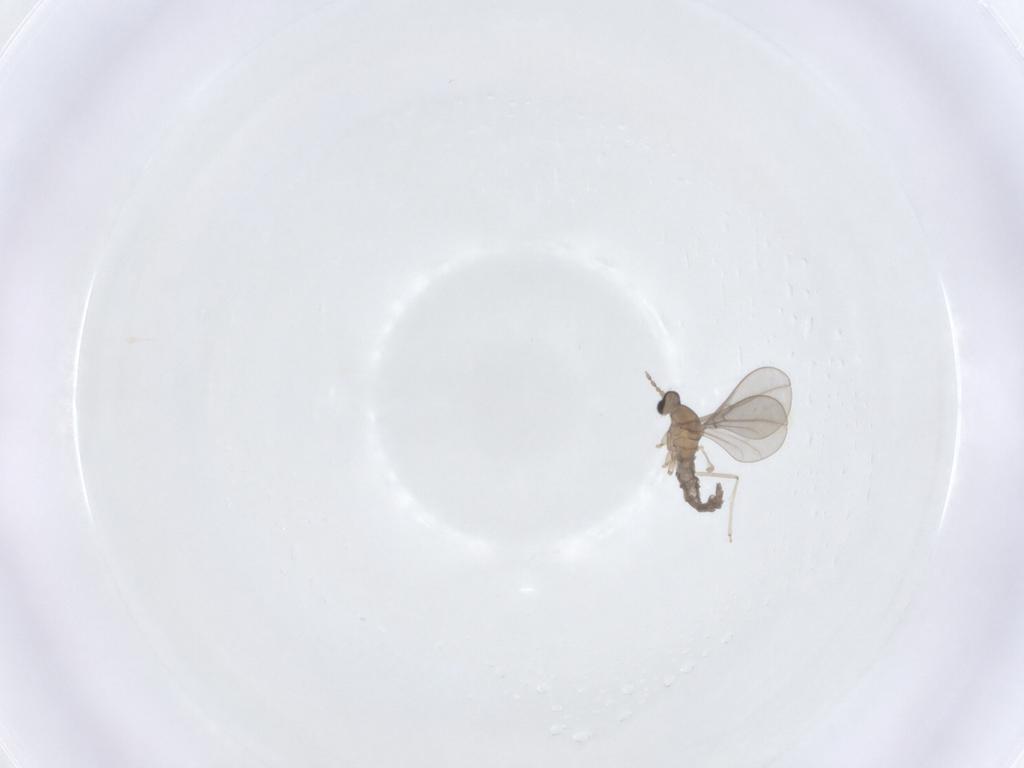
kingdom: Animalia
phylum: Arthropoda
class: Insecta
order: Diptera
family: Cecidomyiidae
